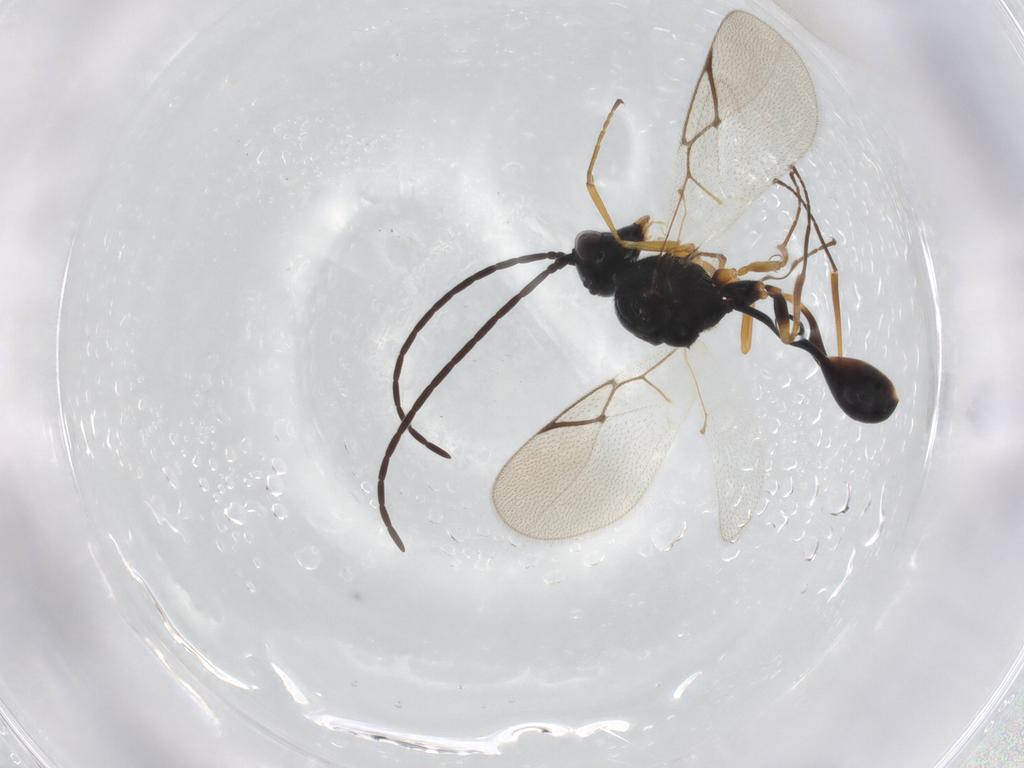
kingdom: Animalia
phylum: Arthropoda
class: Insecta
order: Hymenoptera
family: Figitidae
